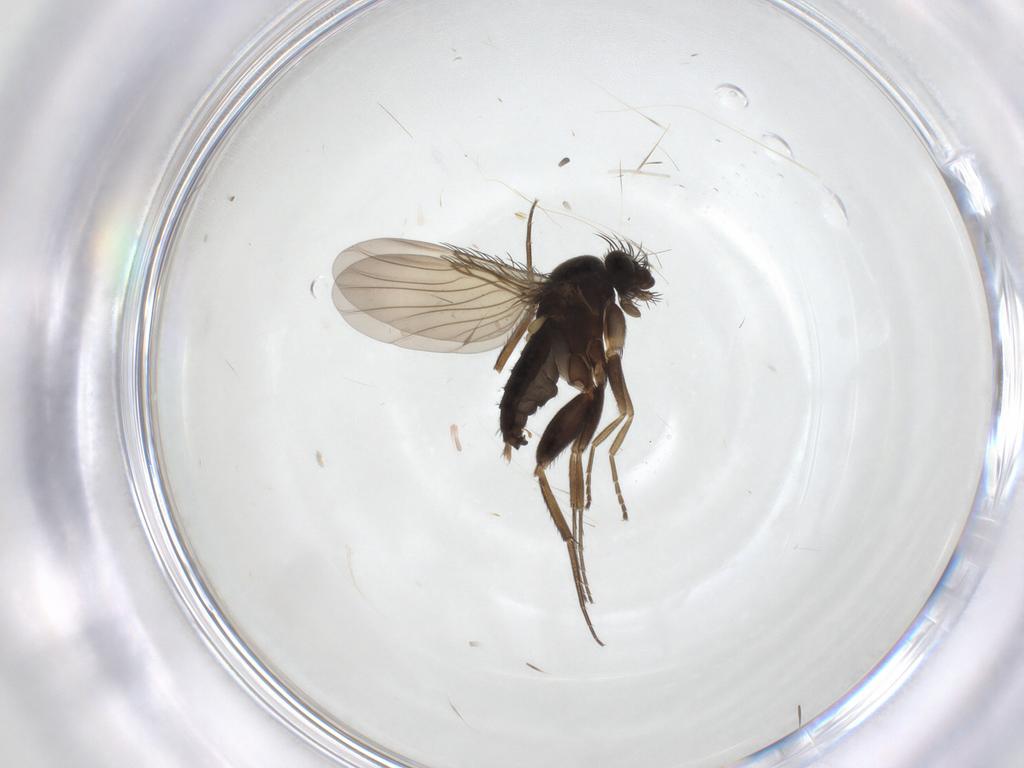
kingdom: Animalia
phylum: Arthropoda
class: Insecta
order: Diptera
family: Phoridae
